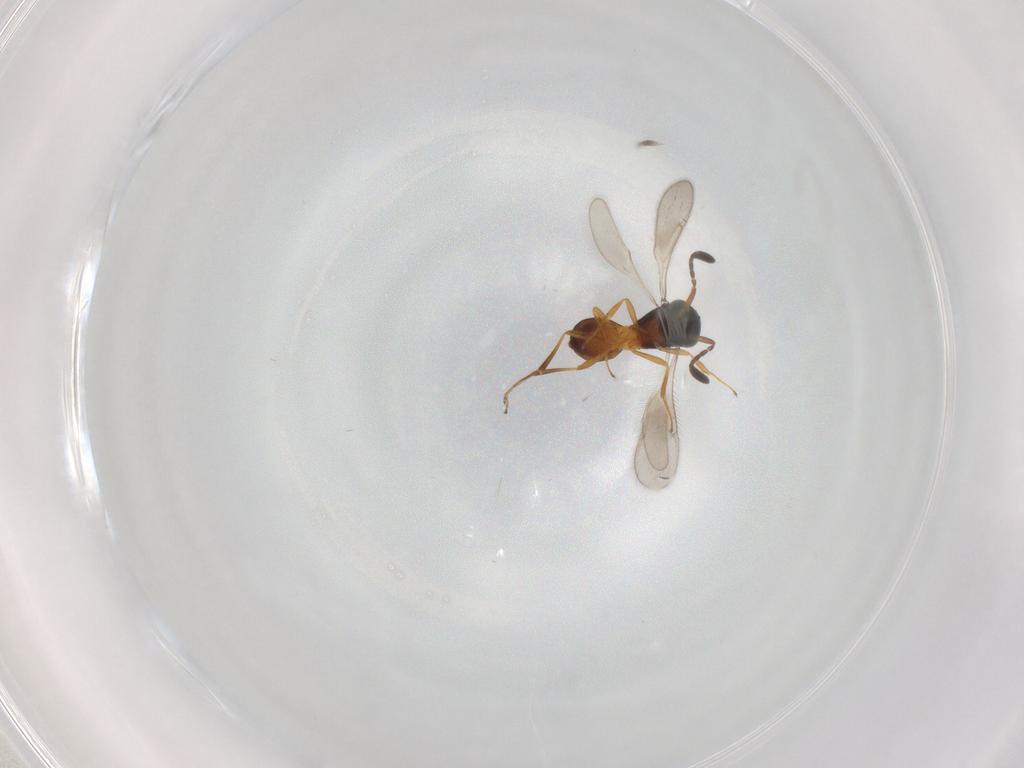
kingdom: Animalia
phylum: Arthropoda
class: Insecta
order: Hymenoptera
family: Scelionidae
